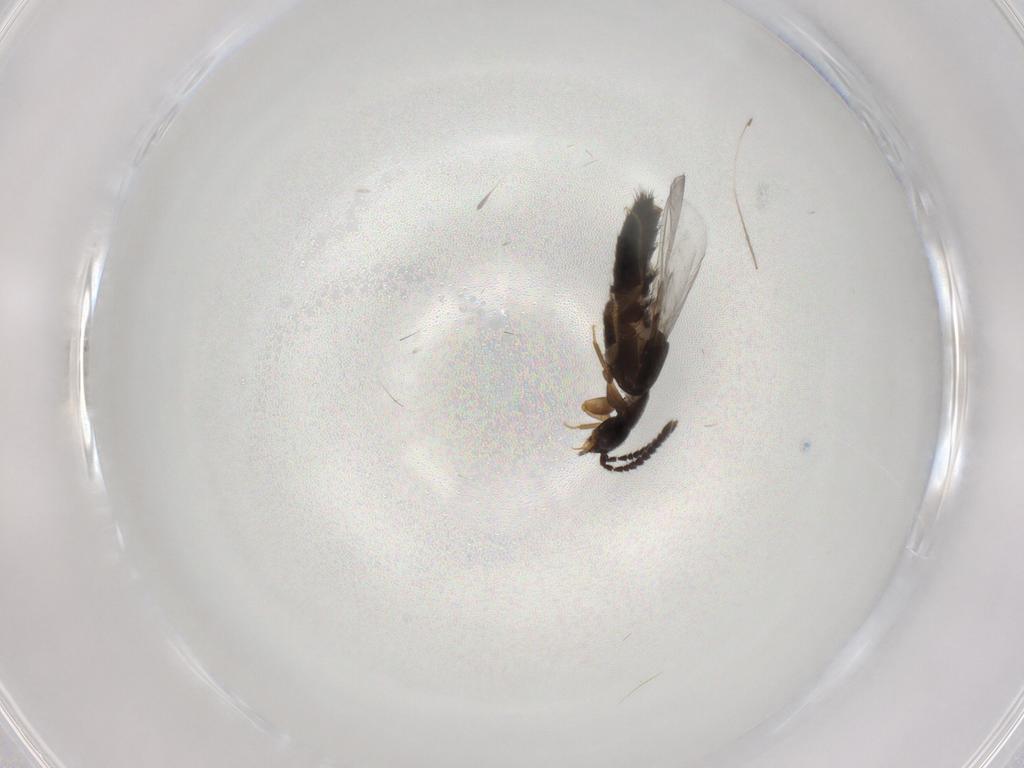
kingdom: Animalia
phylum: Arthropoda
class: Insecta
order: Coleoptera
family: Staphylinidae
